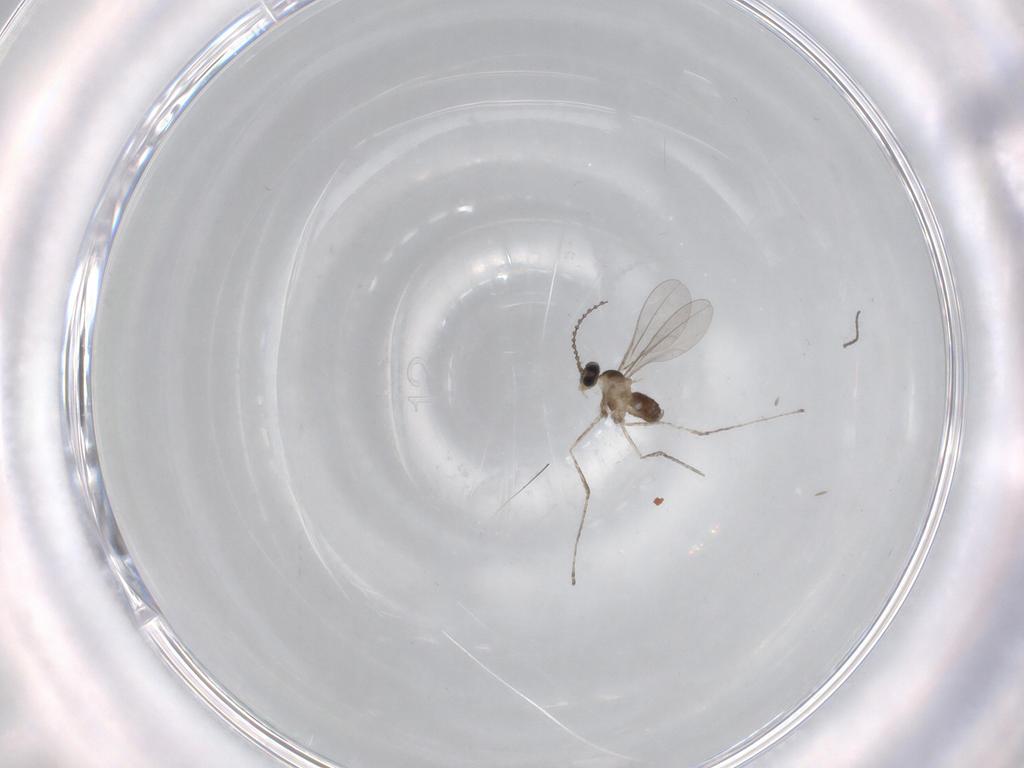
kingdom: Animalia
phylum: Arthropoda
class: Insecta
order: Diptera
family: Cecidomyiidae
